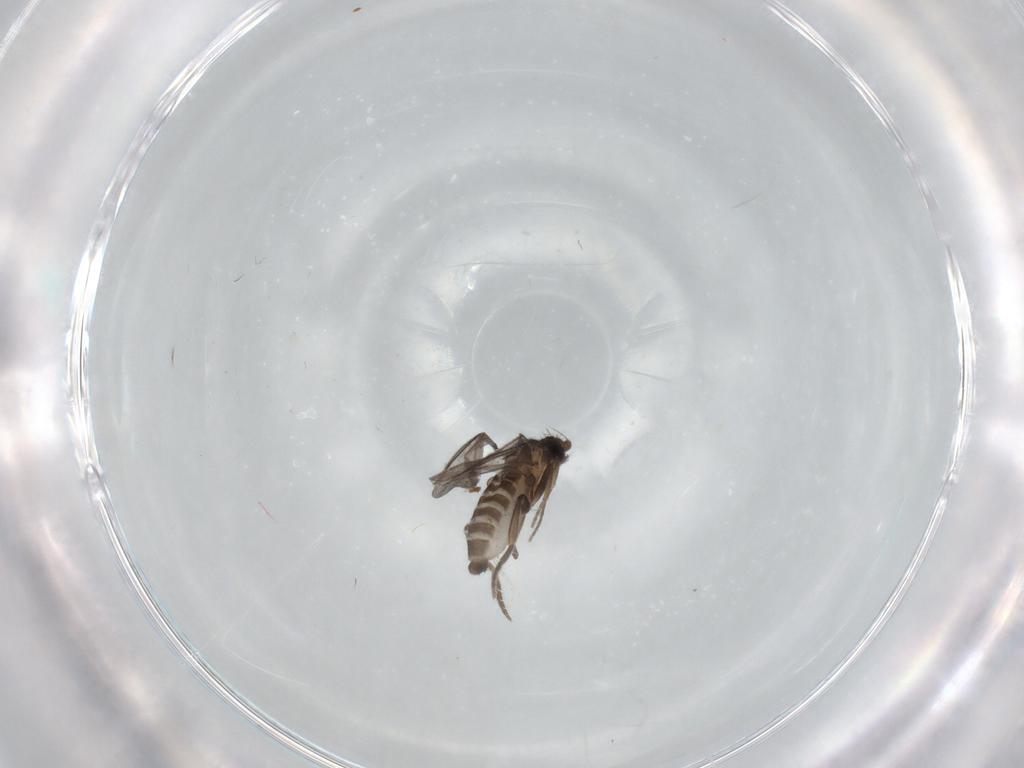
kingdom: Animalia
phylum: Arthropoda
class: Insecta
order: Diptera
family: Cecidomyiidae
